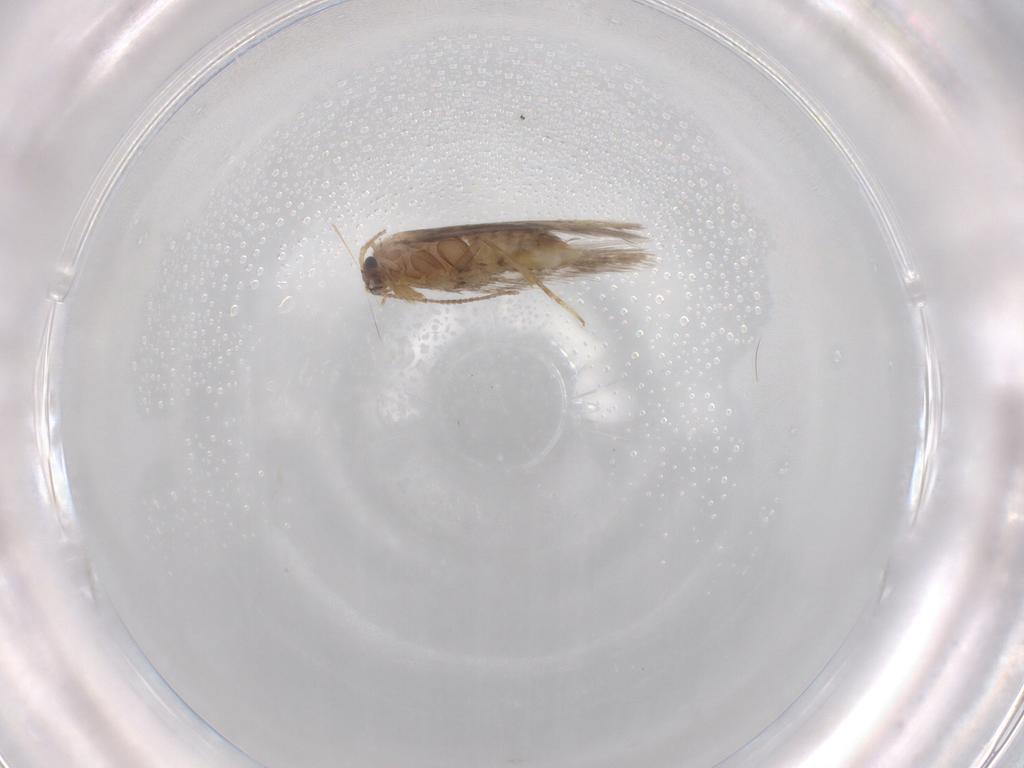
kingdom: Animalia
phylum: Arthropoda
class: Insecta
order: Lepidoptera
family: Nepticulidae
